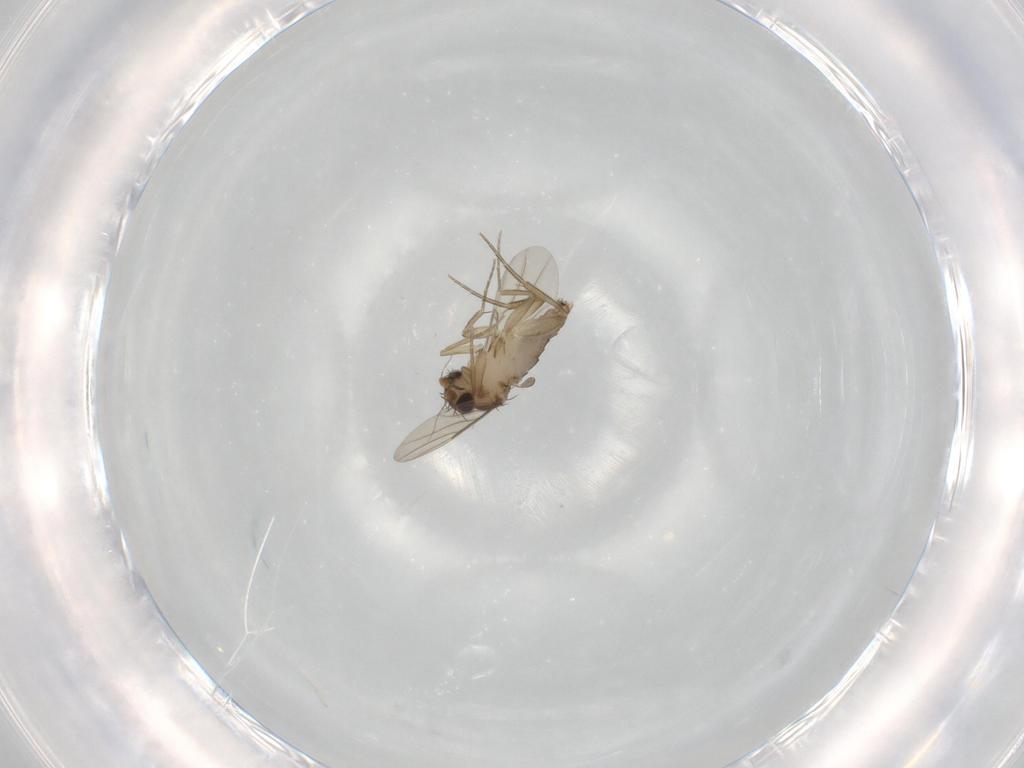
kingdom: Animalia
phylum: Arthropoda
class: Insecta
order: Diptera
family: Phoridae
